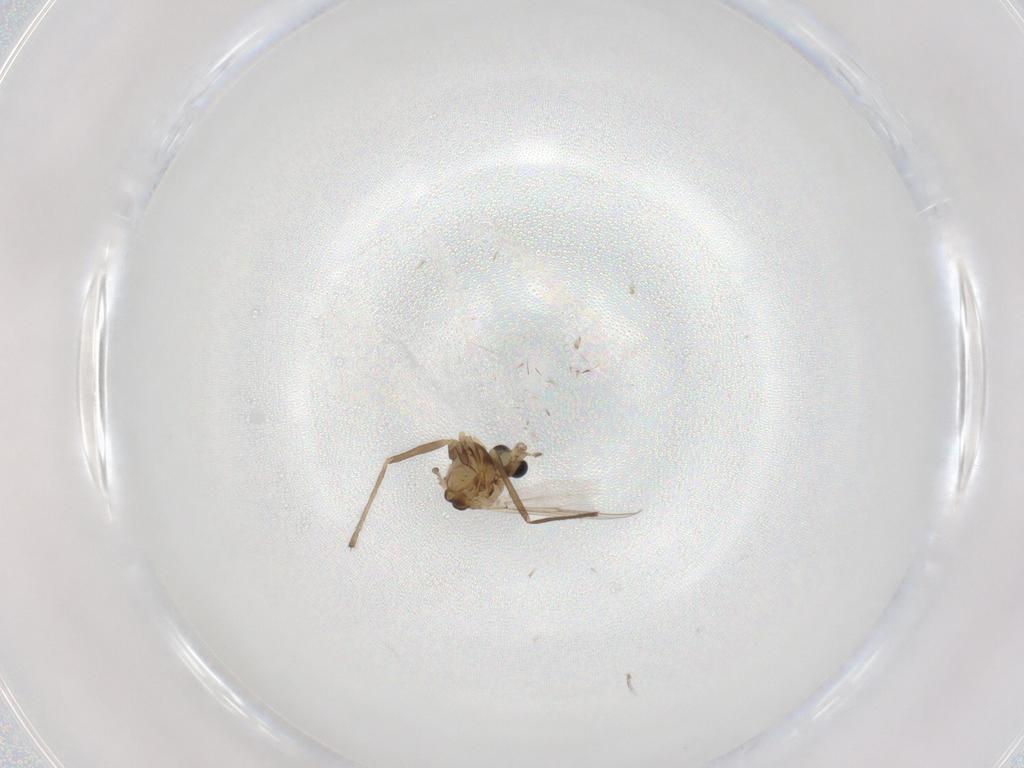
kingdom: Animalia
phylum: Arthropoda
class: Insecta
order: Diptera
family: Chironomidae
